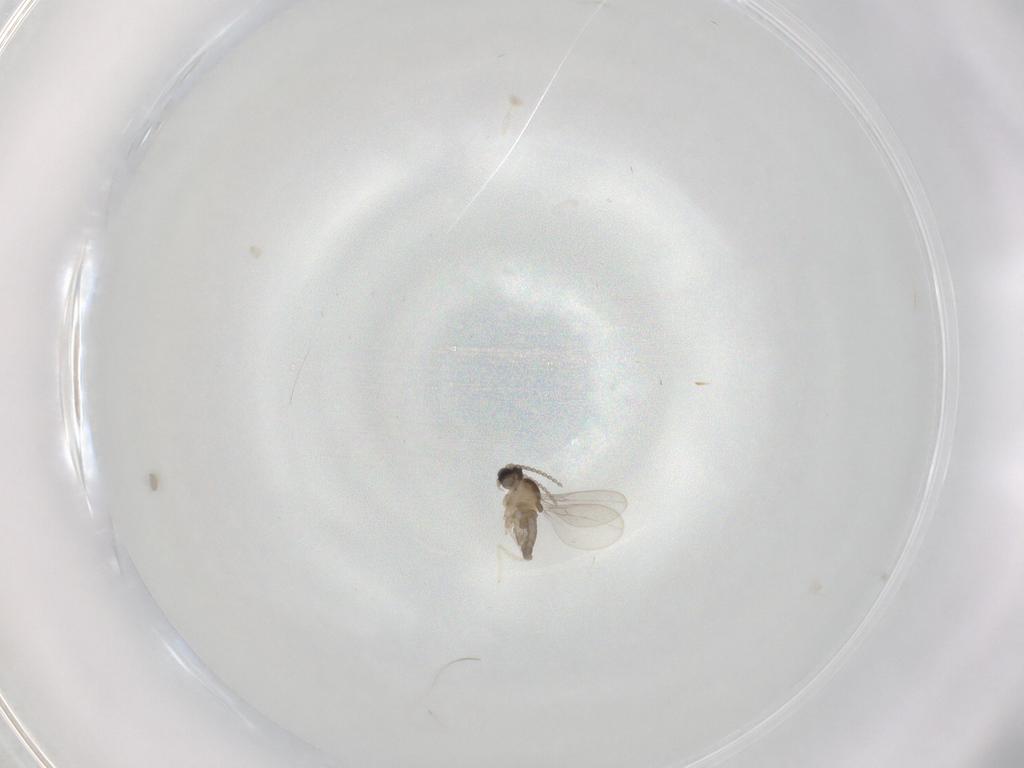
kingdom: Animalia
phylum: Arthropoda
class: Insecta
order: Diptera
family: Cecidomyiidae
